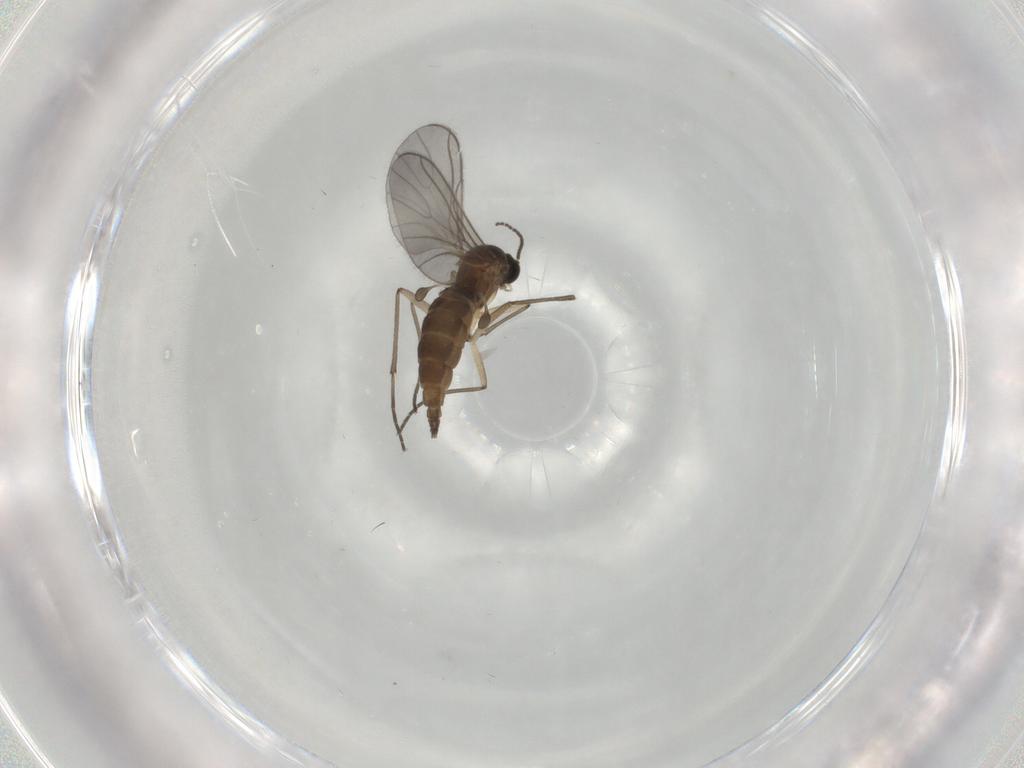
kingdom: Animalia
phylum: Arthropoda
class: Insecta
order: Diptera
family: Sciaridae
